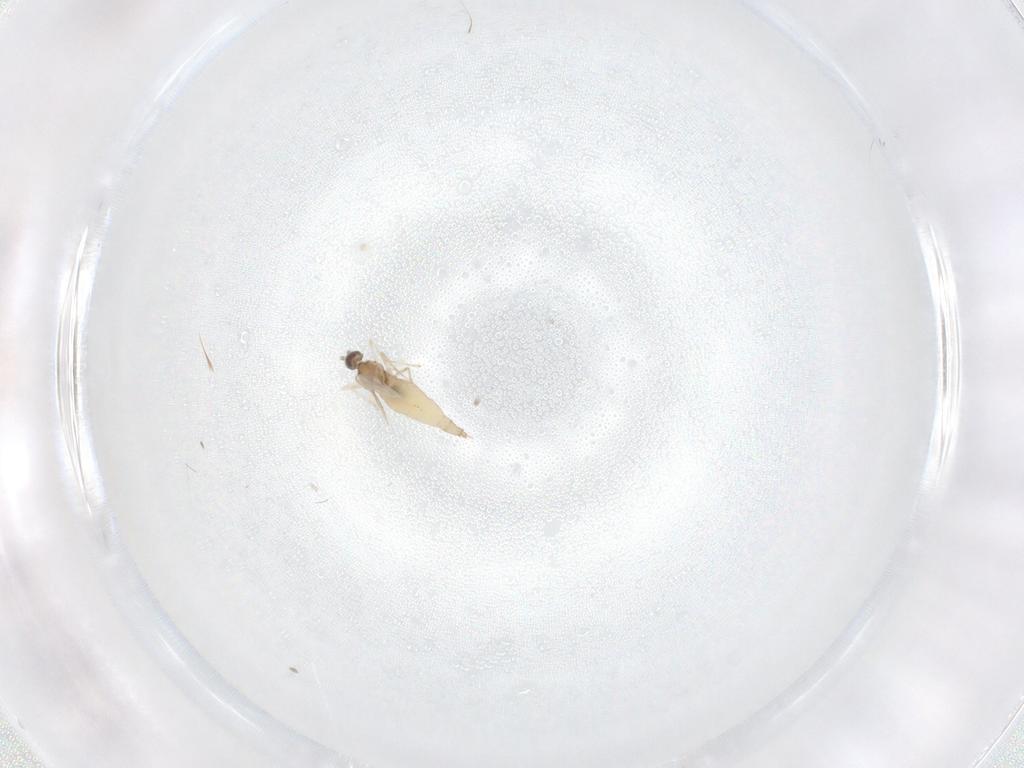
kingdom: Animalia
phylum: Arthropoda
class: Insecta
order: Diptera
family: Cecidomyiidae
